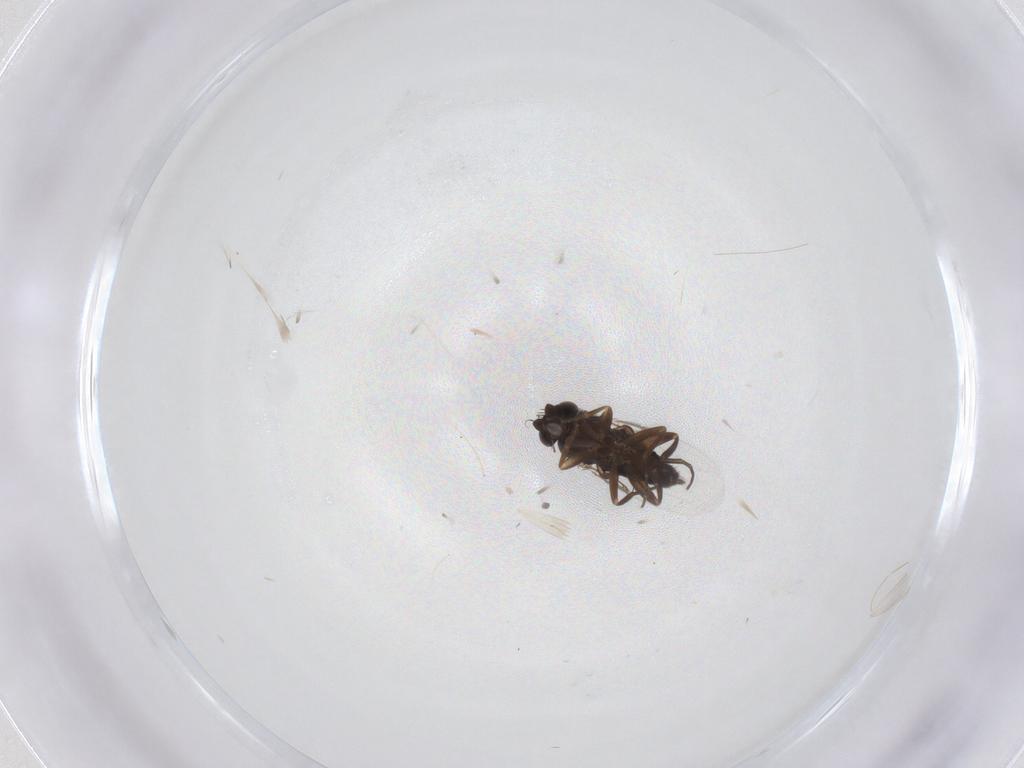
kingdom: Animalia
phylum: Arthropoda
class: Insecta
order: Diptera
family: Phoridae
